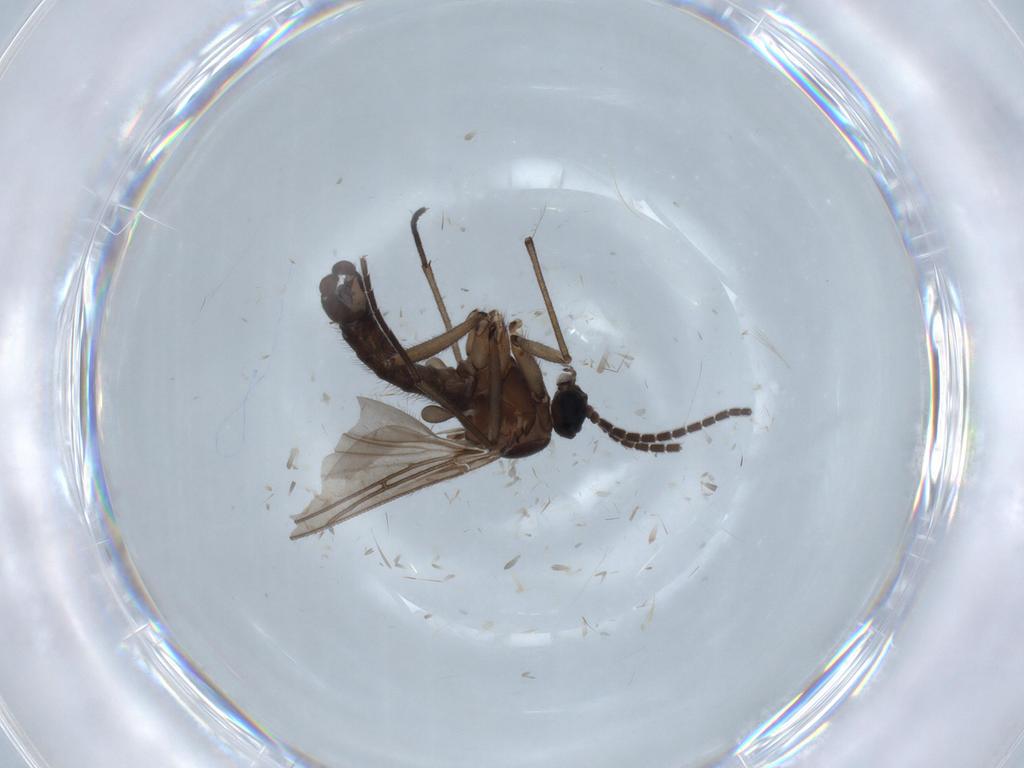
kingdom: Animalia
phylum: Arthropoda
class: Insecta
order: Diptera
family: Sciaridae
